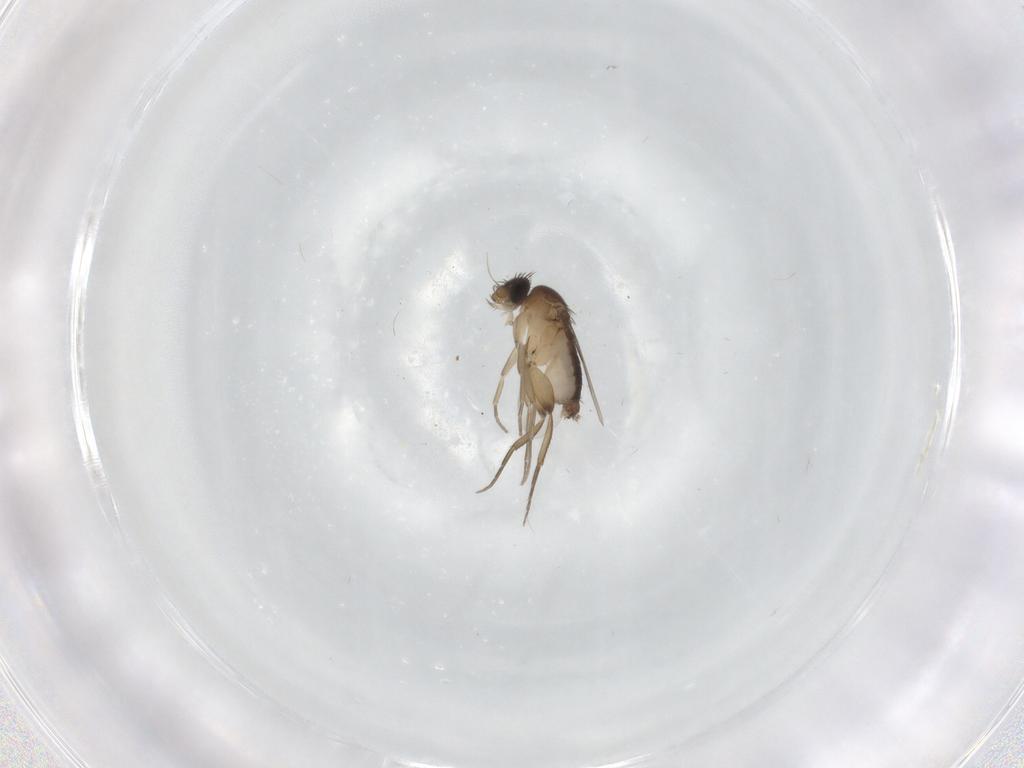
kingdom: Animalia
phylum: Arthropoda
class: Insecta
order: Diptera
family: Phoridae
